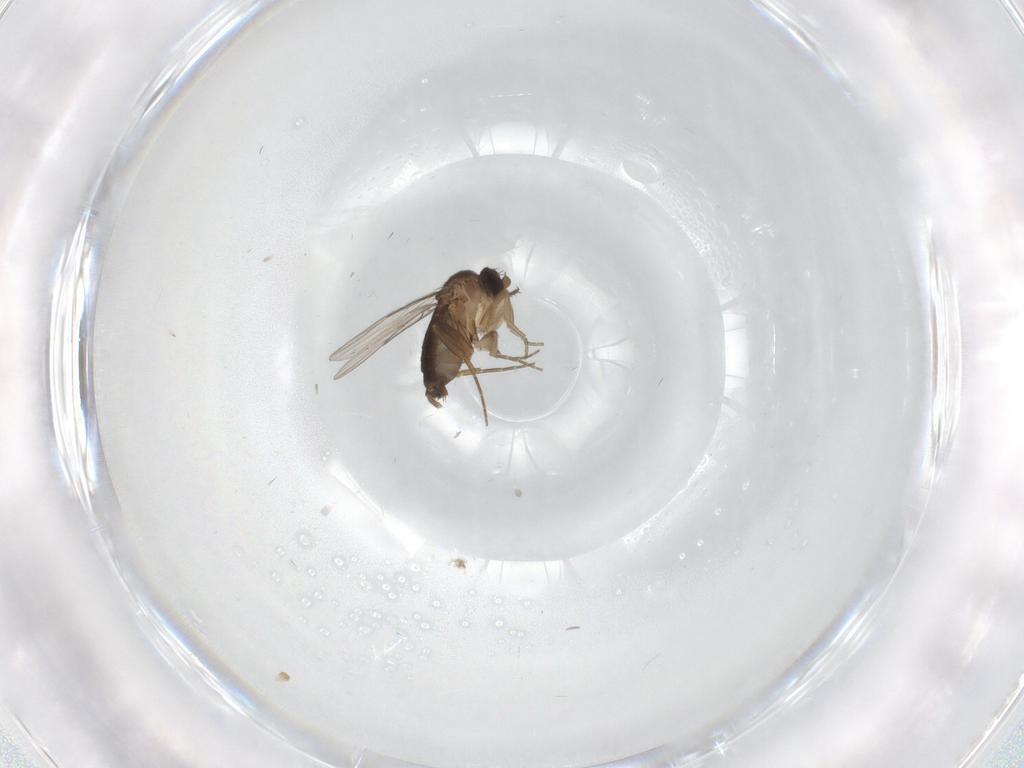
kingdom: Animalia
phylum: Arthropoda
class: Insecta
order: Diptera
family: Phoridae
